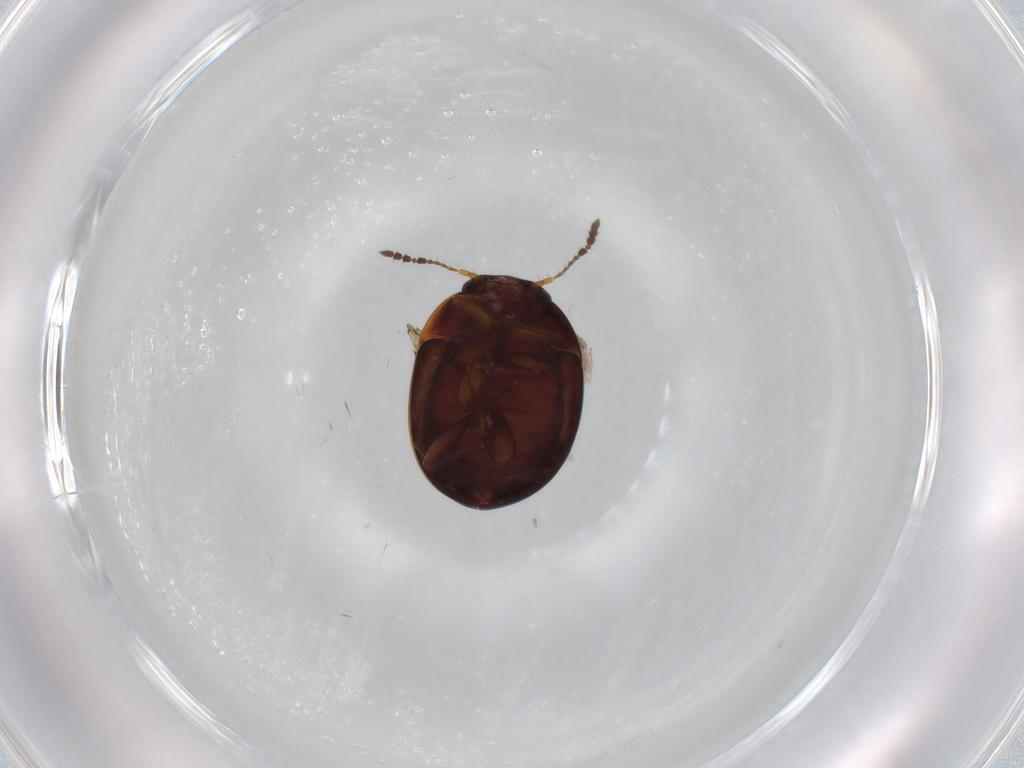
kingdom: Animalia
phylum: Arthropoda
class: Insecta
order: Coleoptera
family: Leiodidae
